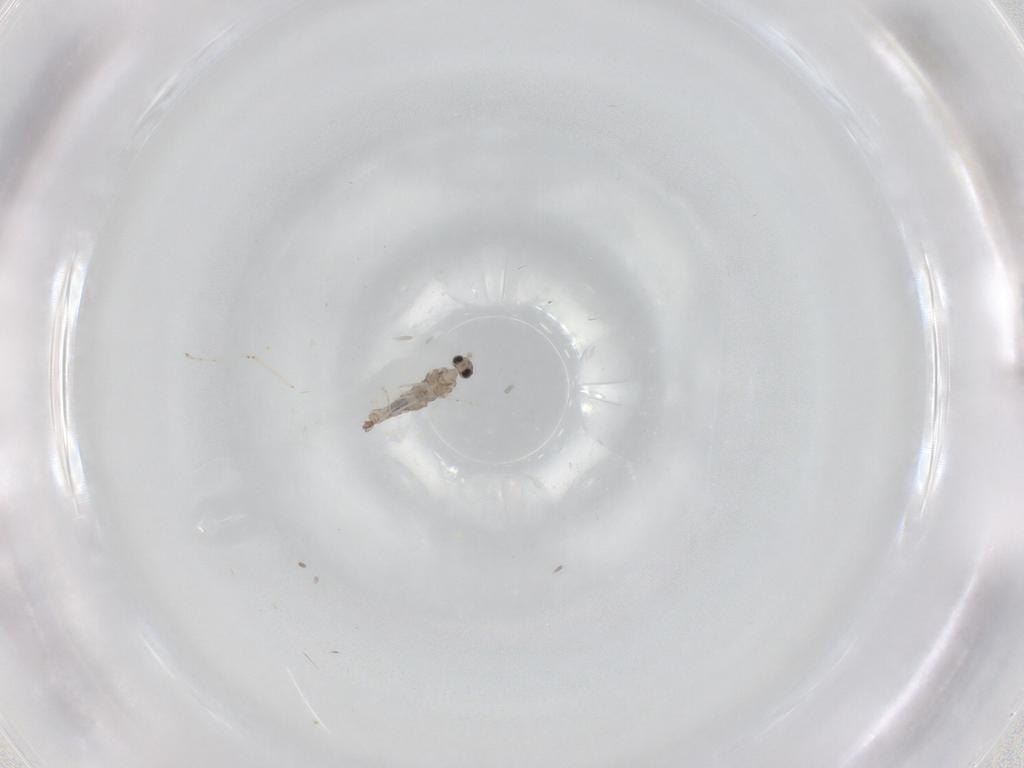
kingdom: Animalia
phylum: Arthropoda
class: Insecta
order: Diptera
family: Cecidomyiidae
